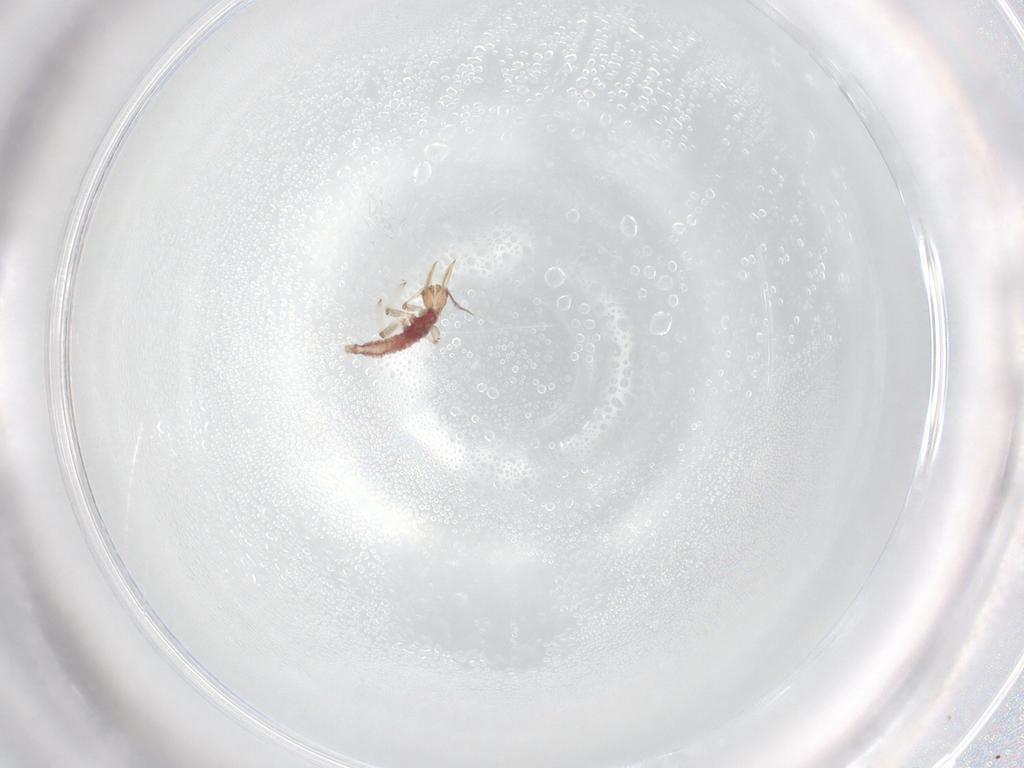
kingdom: Animalia
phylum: Arthropoda
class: Insecta
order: Neuroptera
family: Hemerobiidae
